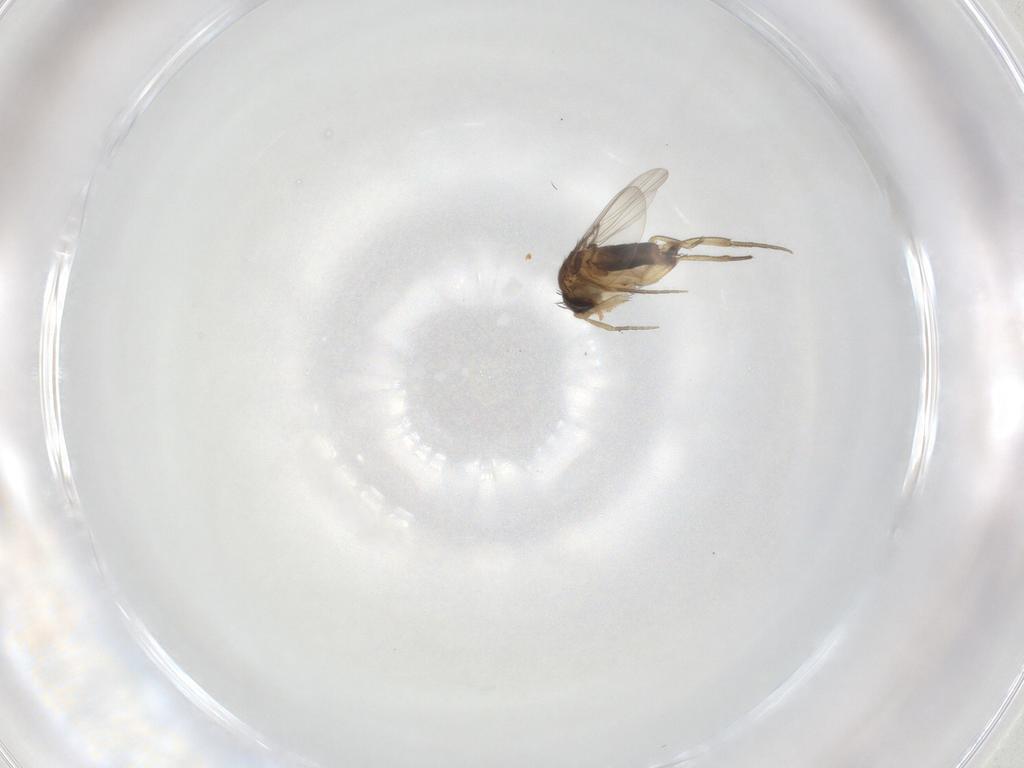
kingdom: Animalia
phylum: Arthropoda
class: Insecta
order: Diptera
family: Phoridae
